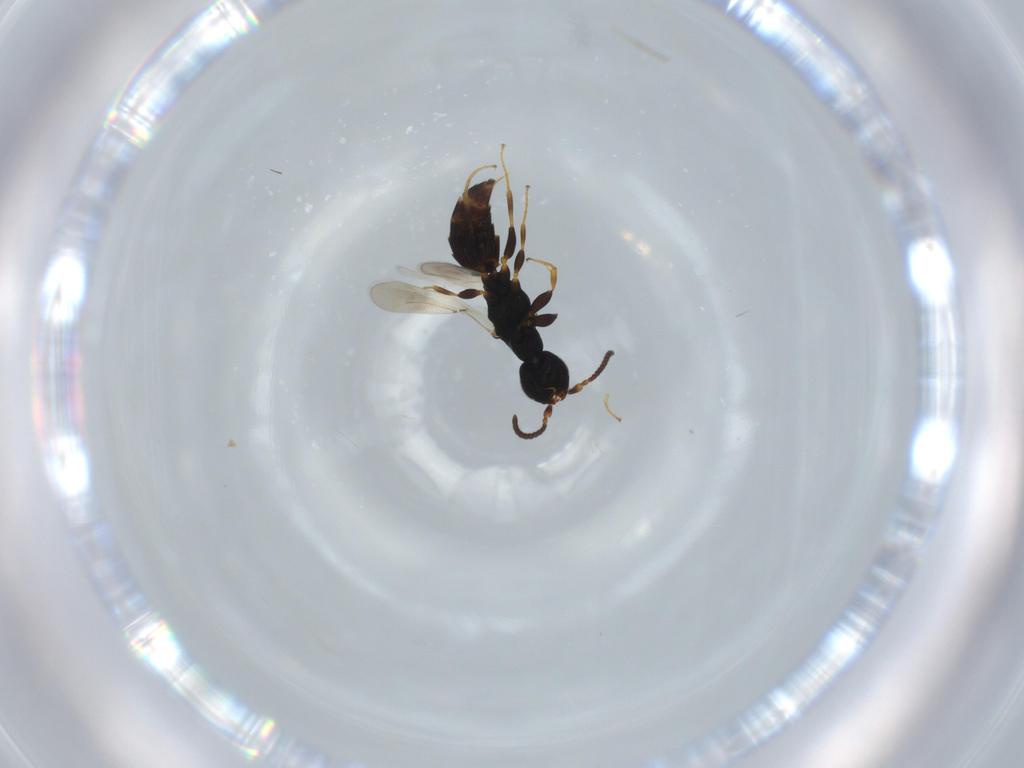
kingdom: Animalia
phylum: Arthropoda
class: Insecta
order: Hymenoptera
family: Bethylidae
